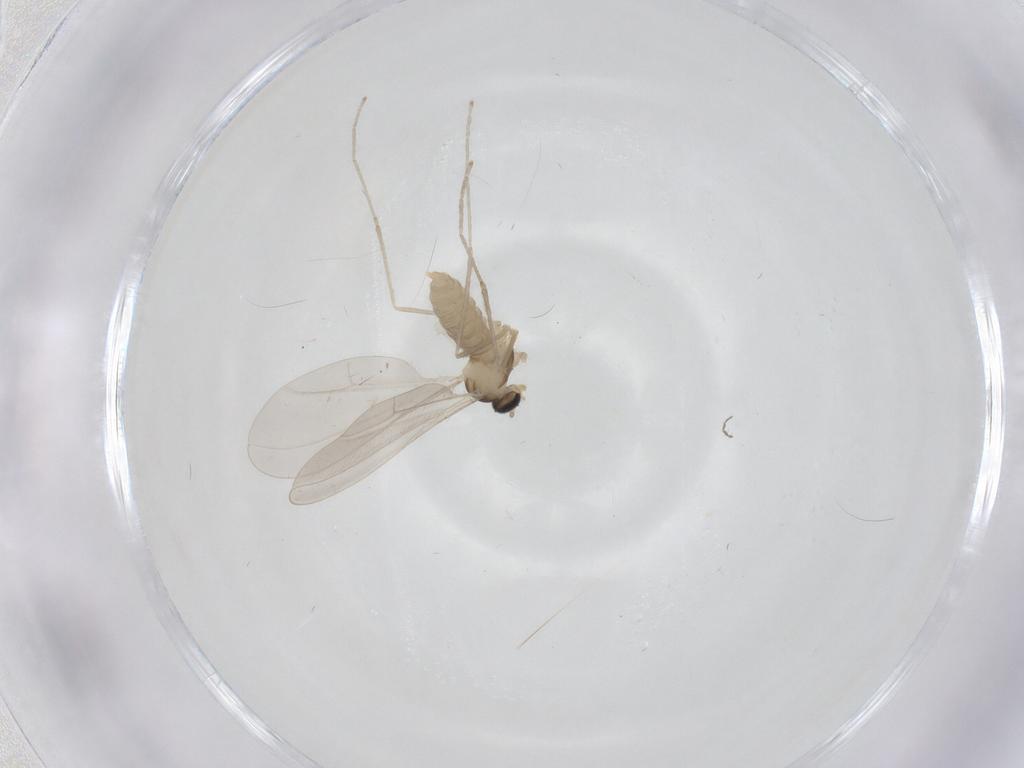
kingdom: Animalia
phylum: Arthropoda
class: Insecta
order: Diptera
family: Cecidomyiidae
